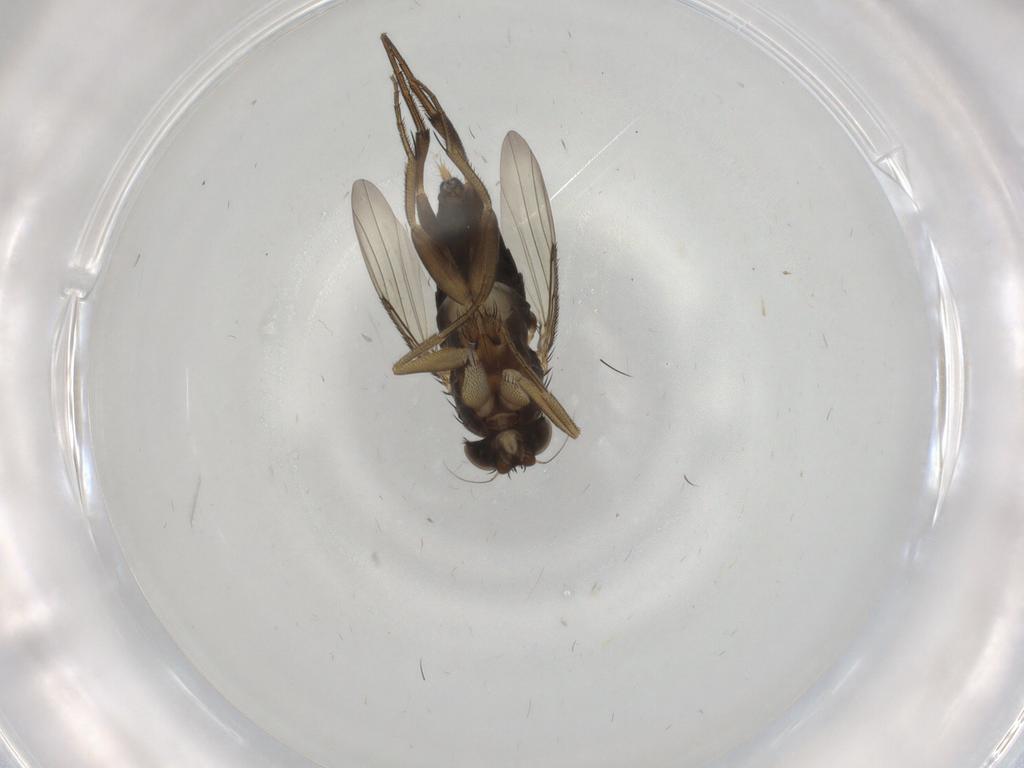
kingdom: Animalia
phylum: Arthropoda
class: Insecta
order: Diptera
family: Phoridae
